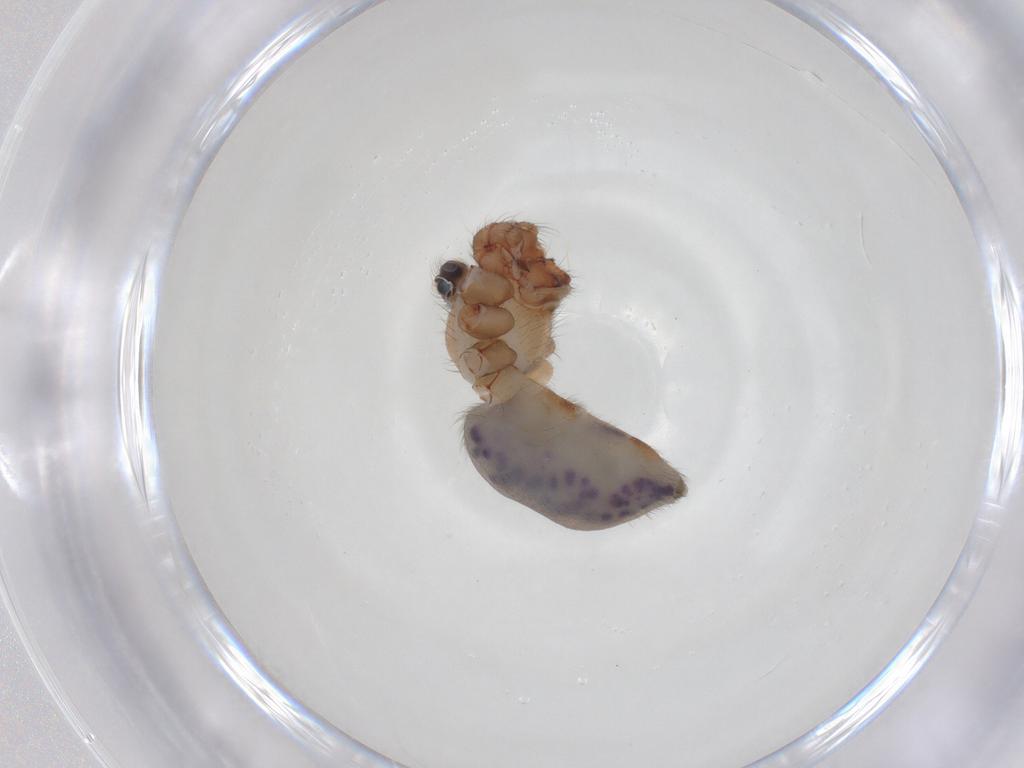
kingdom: Animalia
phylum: Arthropoda
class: Arachnida
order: Araneae
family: Pholcidae
